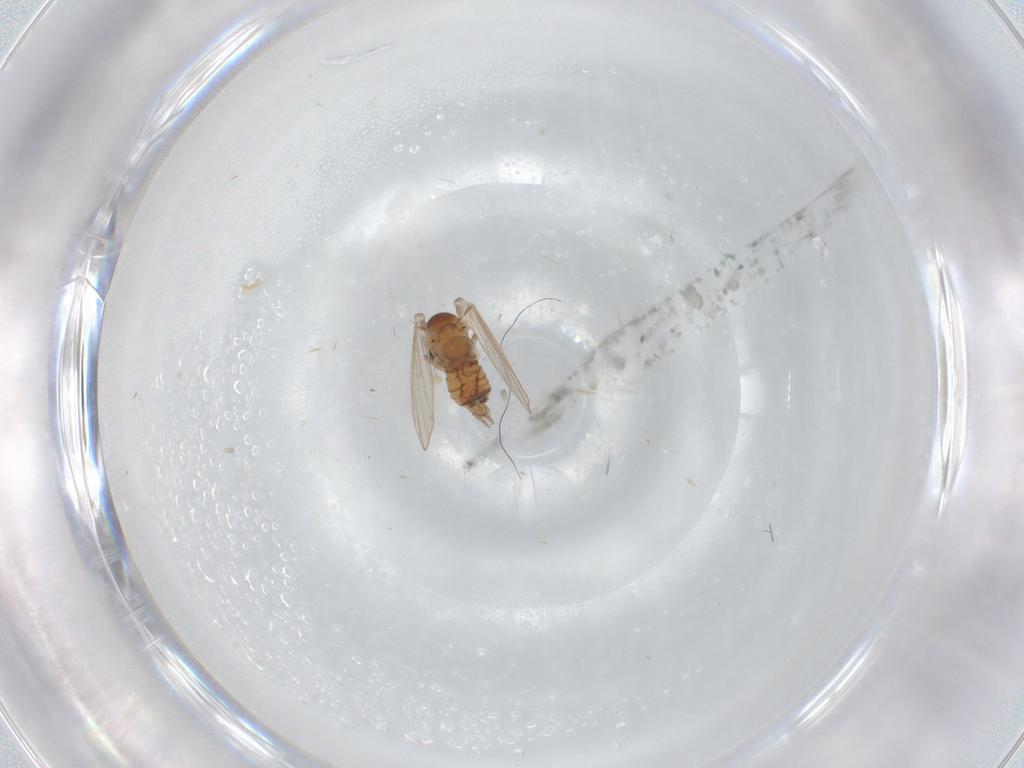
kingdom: Animalia
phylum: Arthropoda
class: Insecta
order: Diptera
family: Psychodidae
